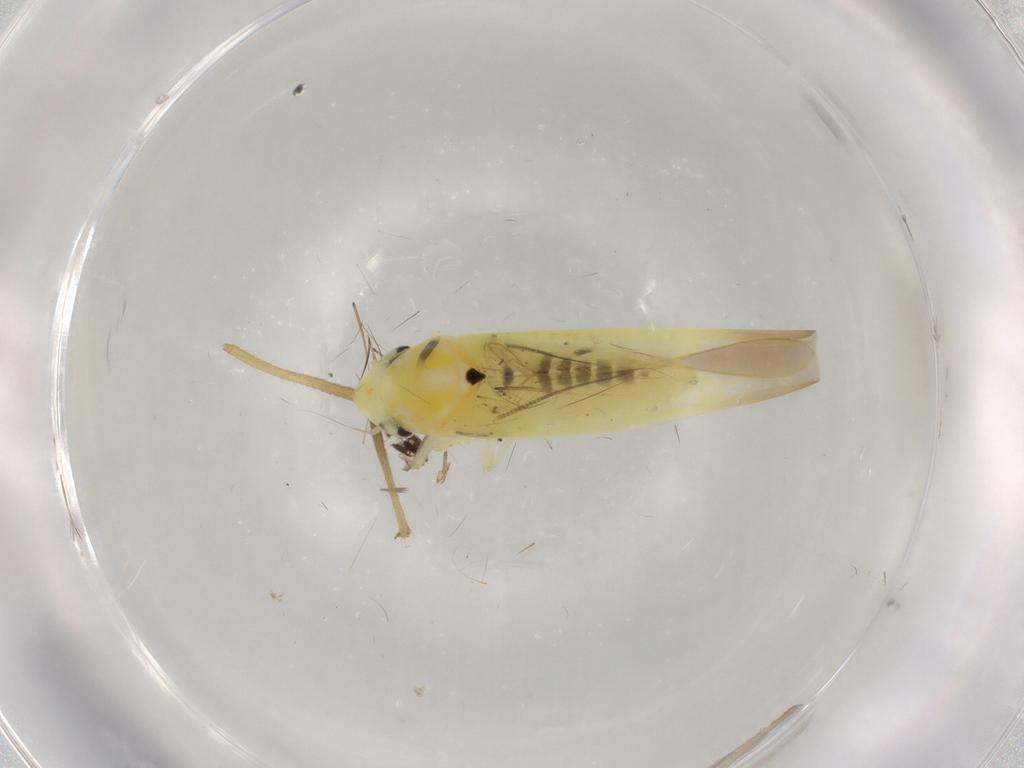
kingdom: Animalia
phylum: Arthropoda
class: Insecta
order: Hemiptera
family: Cicadellidae
